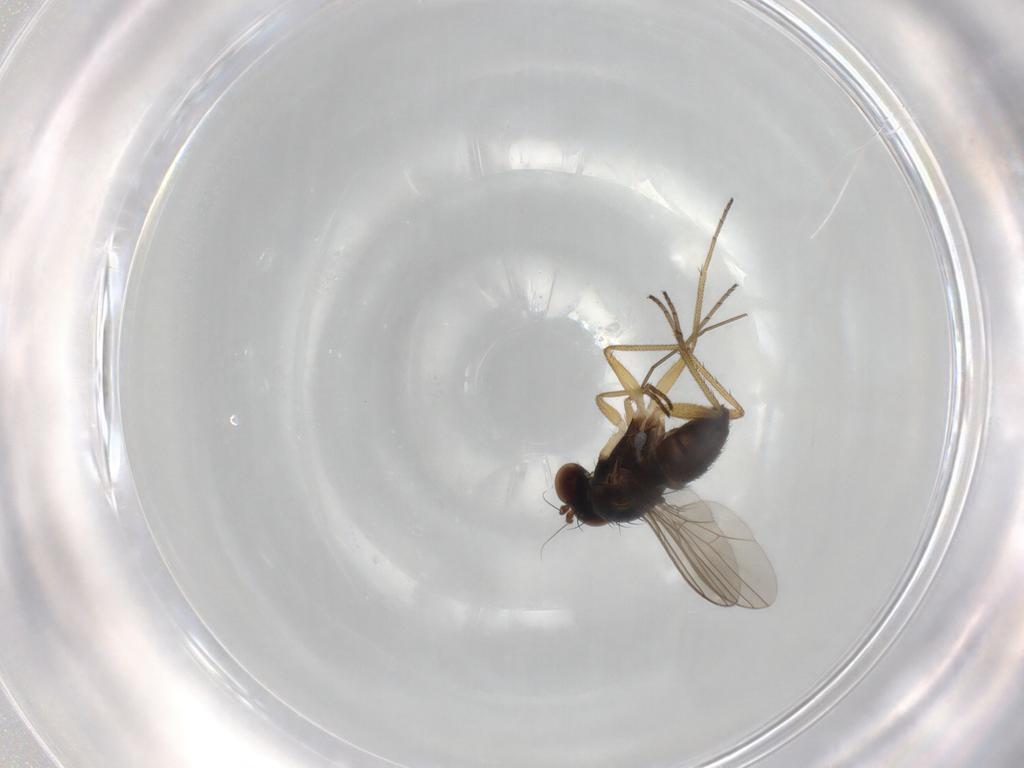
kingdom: Animalia
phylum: Arthropoda
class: Insecta
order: Diptera
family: Dolichopodidae
